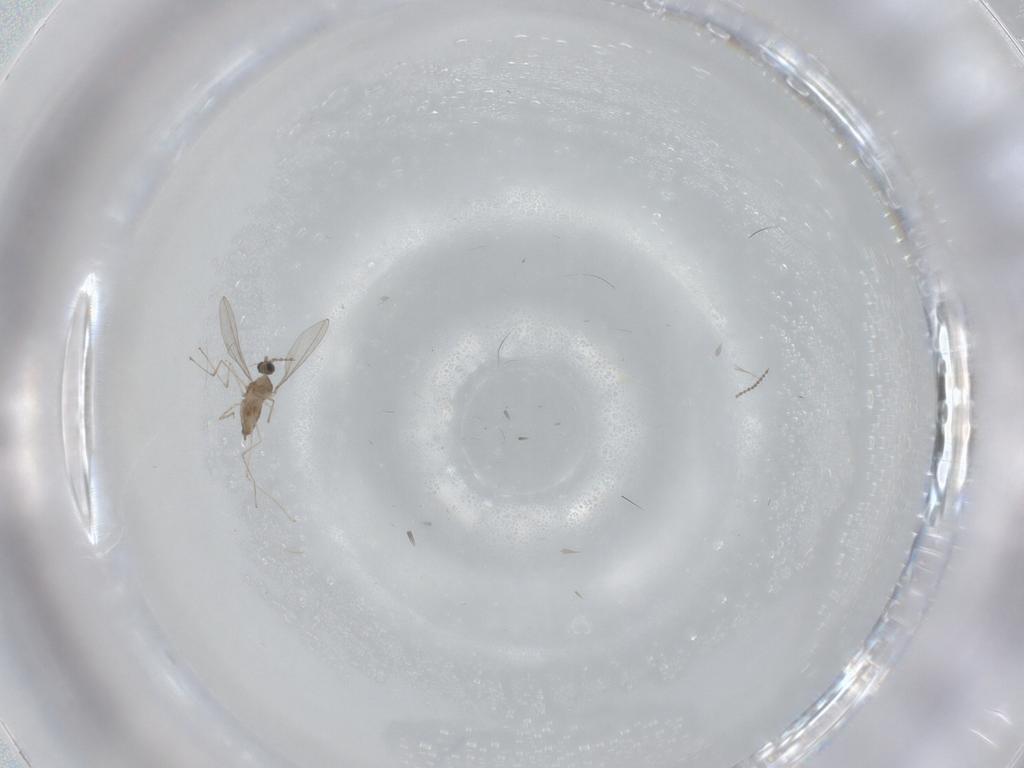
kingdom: Animalia
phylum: Arthropoda
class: Insecta
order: Diptera
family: Cecidomyiidae
